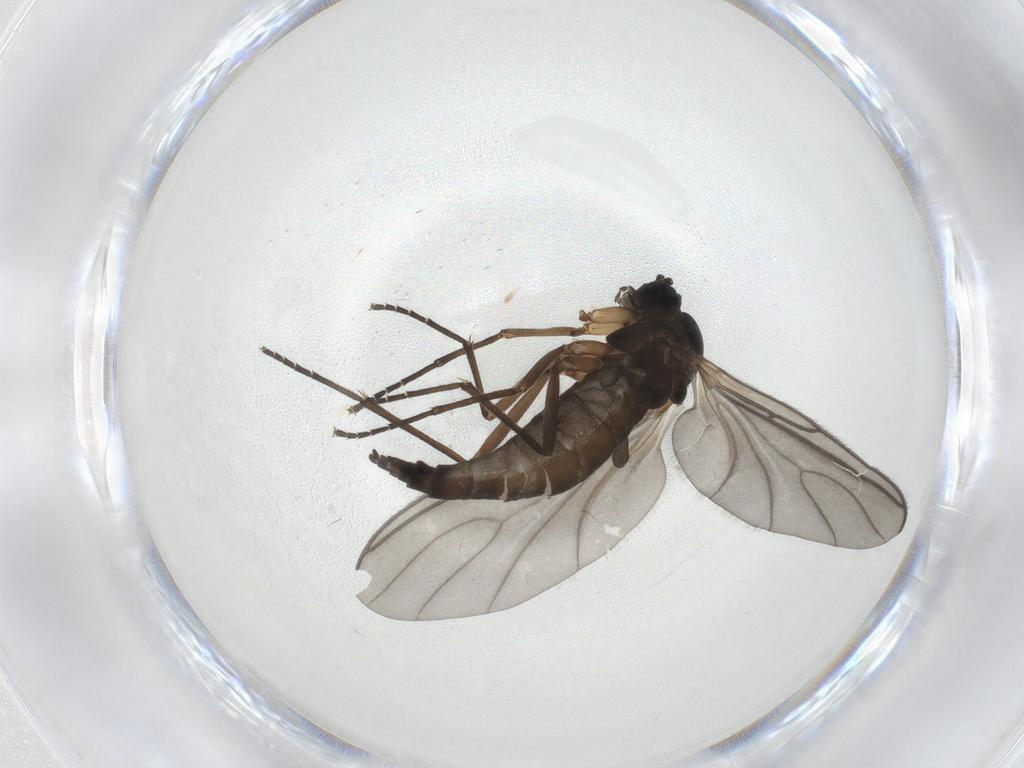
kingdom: Animalia
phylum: Arthropoda
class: Insecta
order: Diptera
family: Sciaridae
